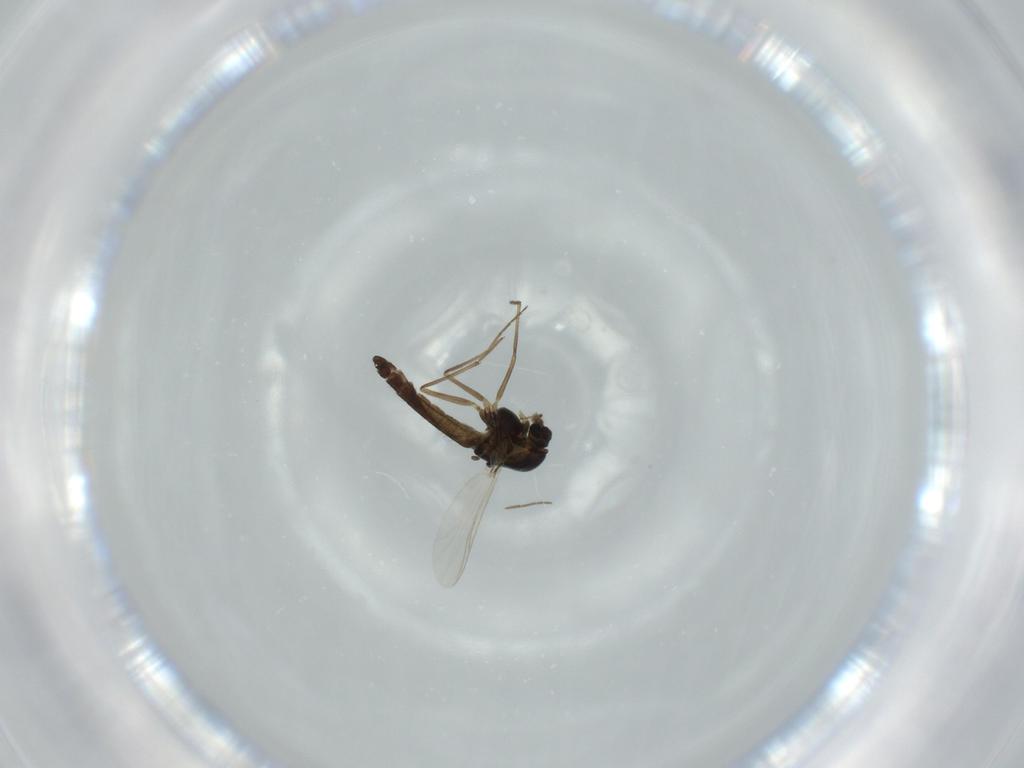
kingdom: Animalia
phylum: Arthropoda
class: Insecta
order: Diptera
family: Chironomidae
